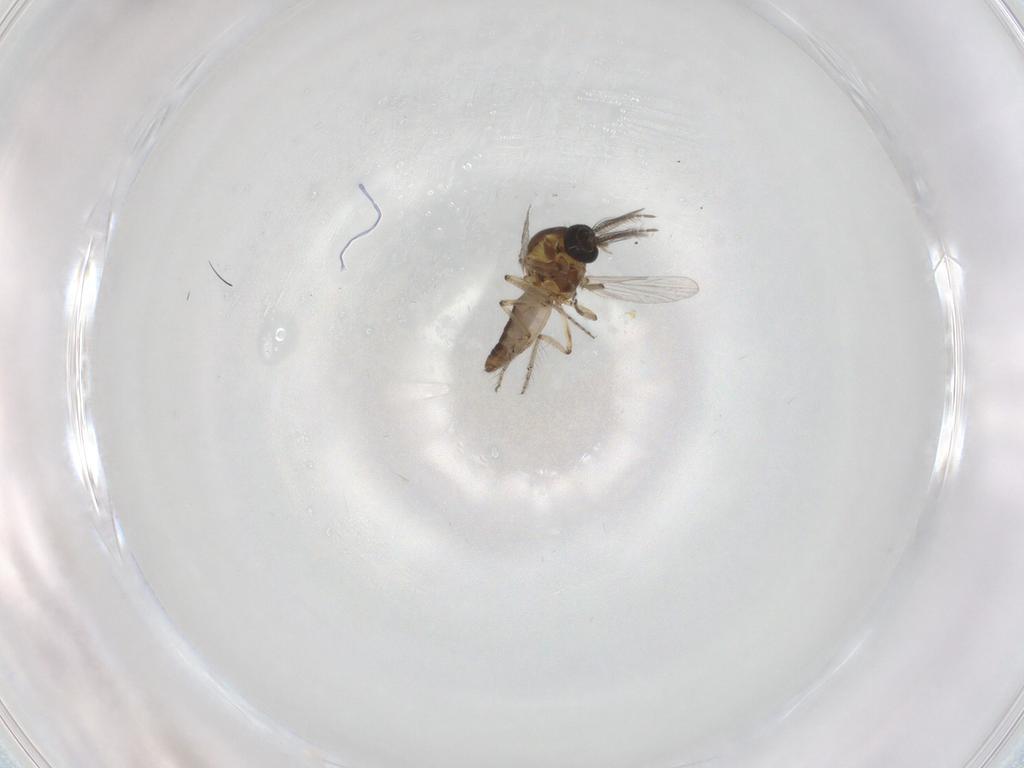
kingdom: Animalia
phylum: Arthropoda
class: Insecta
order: Diptera
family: Ceratopogonidae
